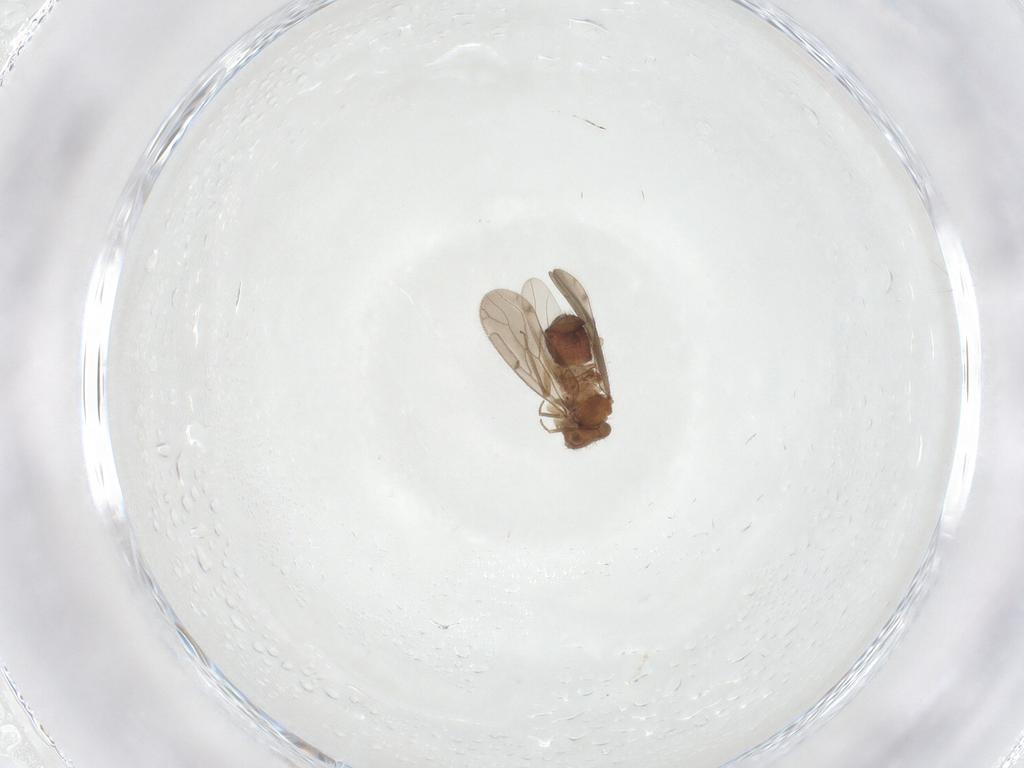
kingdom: Animalia
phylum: Arthropoda
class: Insecta
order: Psocodea
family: Ectopsocidae
